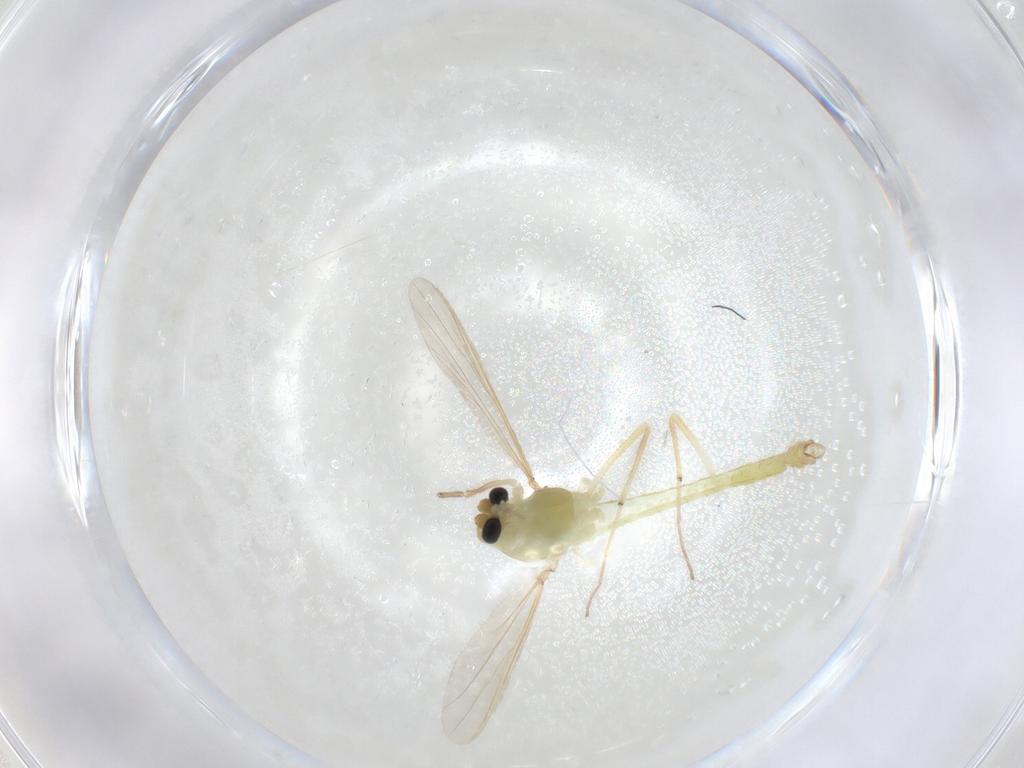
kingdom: Animalia
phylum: Arthropoda
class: Insecta
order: Diptera
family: Chironomidae
